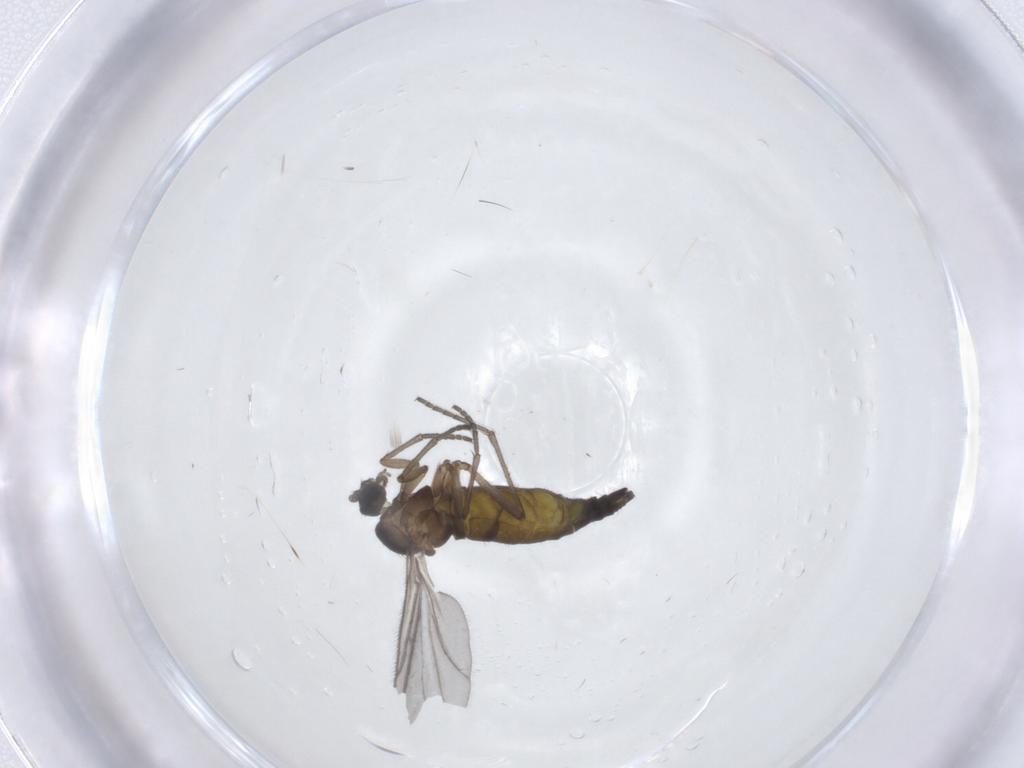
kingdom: Animalia
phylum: Arthropoda
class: Insecta
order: Diptera
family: Sciaridae
